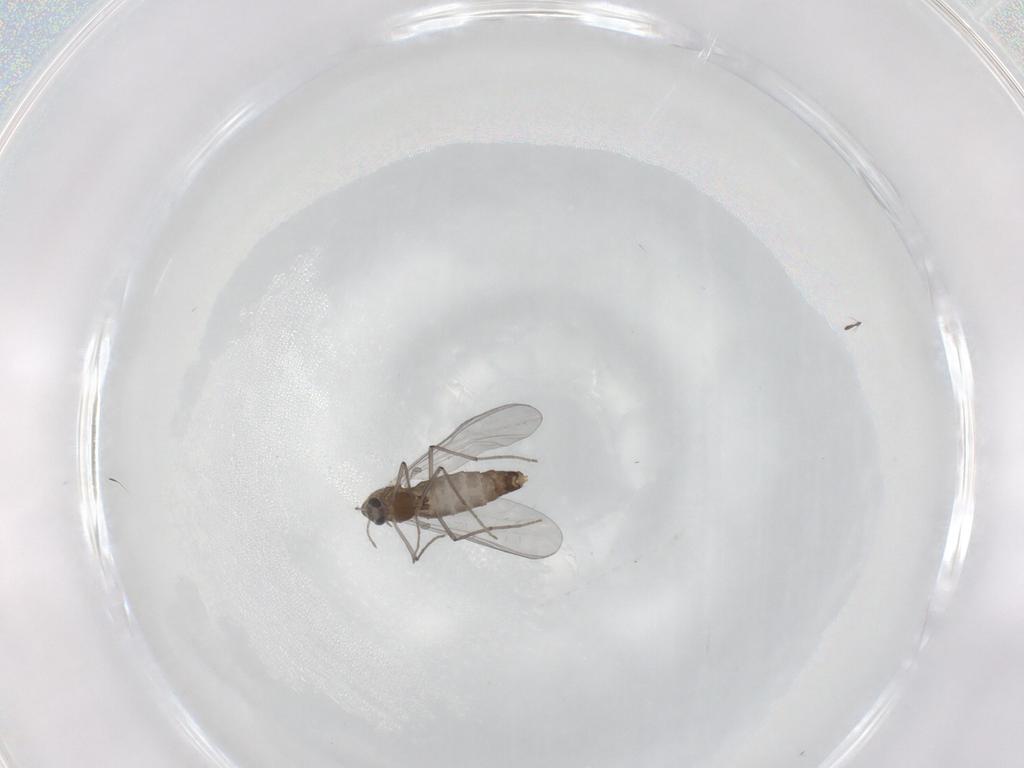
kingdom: Animalia
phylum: Arthropoda
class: Insecta
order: Diptera
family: Chironomidae
